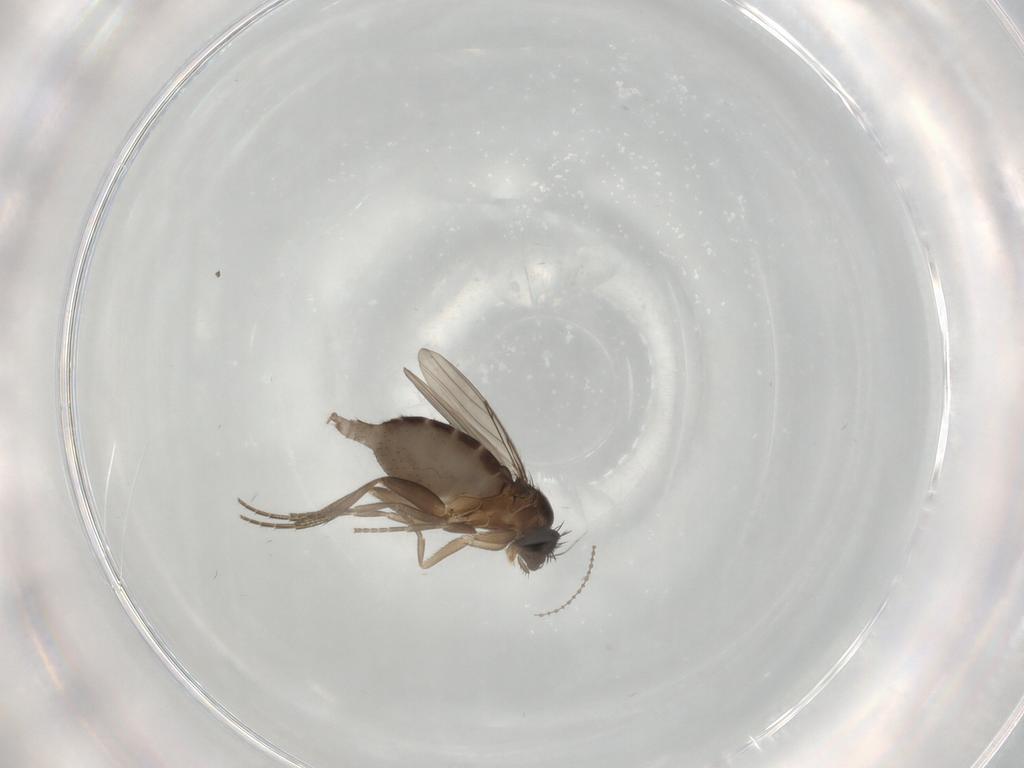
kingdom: Animalia
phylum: Arthropoda
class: Insecta
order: Diptera
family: Phoridae
